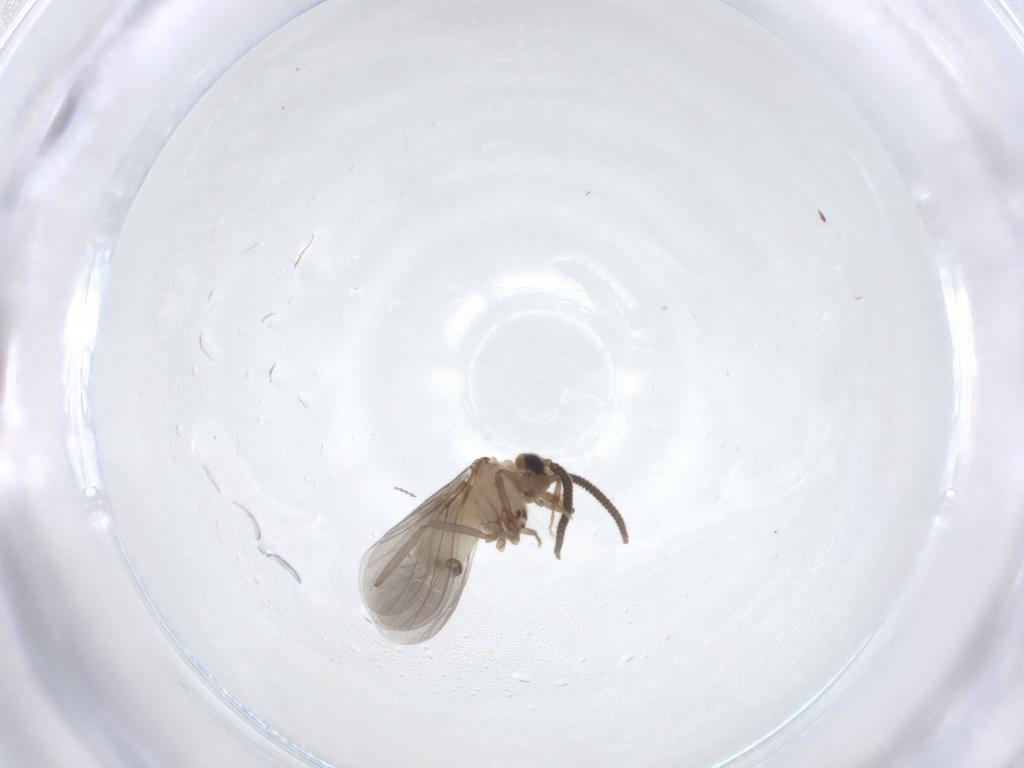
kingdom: Animalia
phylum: Arthropoda
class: Insecta
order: Neuroptera
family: Coniopterygidae
